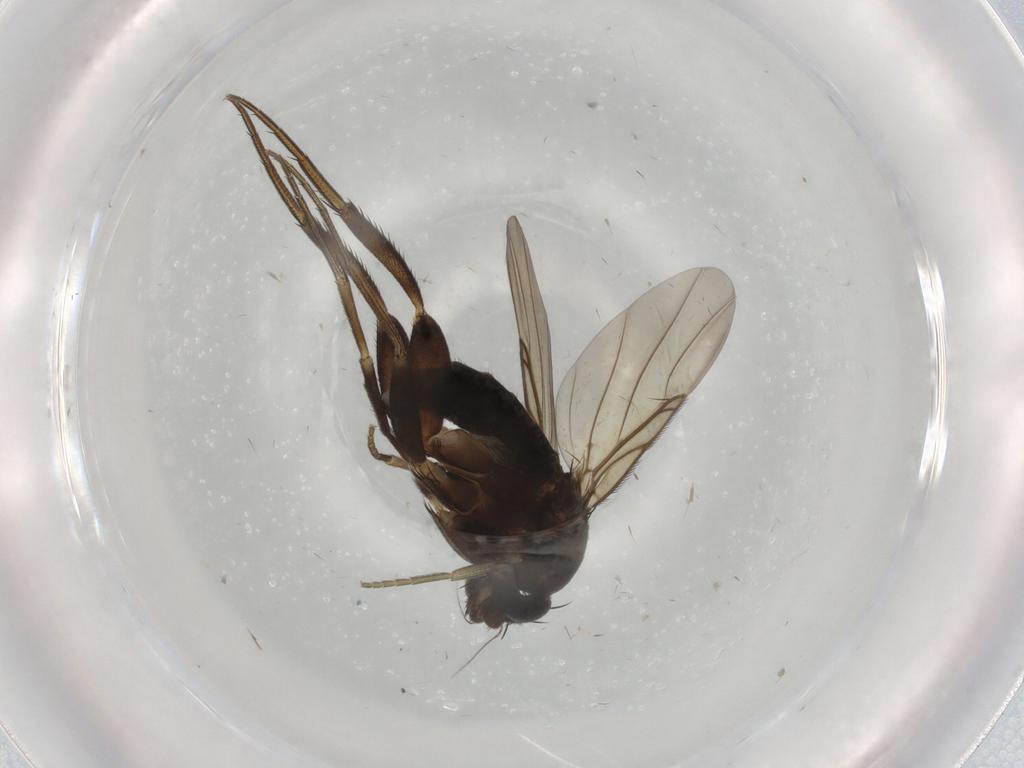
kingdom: Animalia
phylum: Arthropoda
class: Insecta
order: Diptera
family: Phoridae
